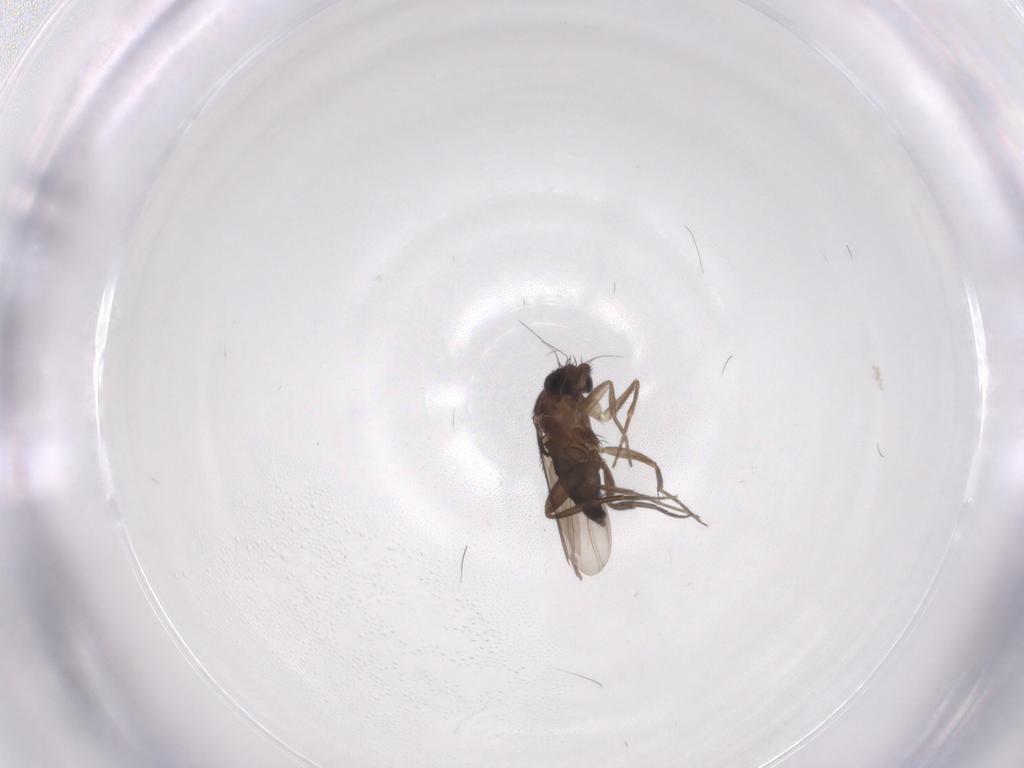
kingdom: Animalia
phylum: Arthropoda
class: Insecta
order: Diptera
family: Phoridae
